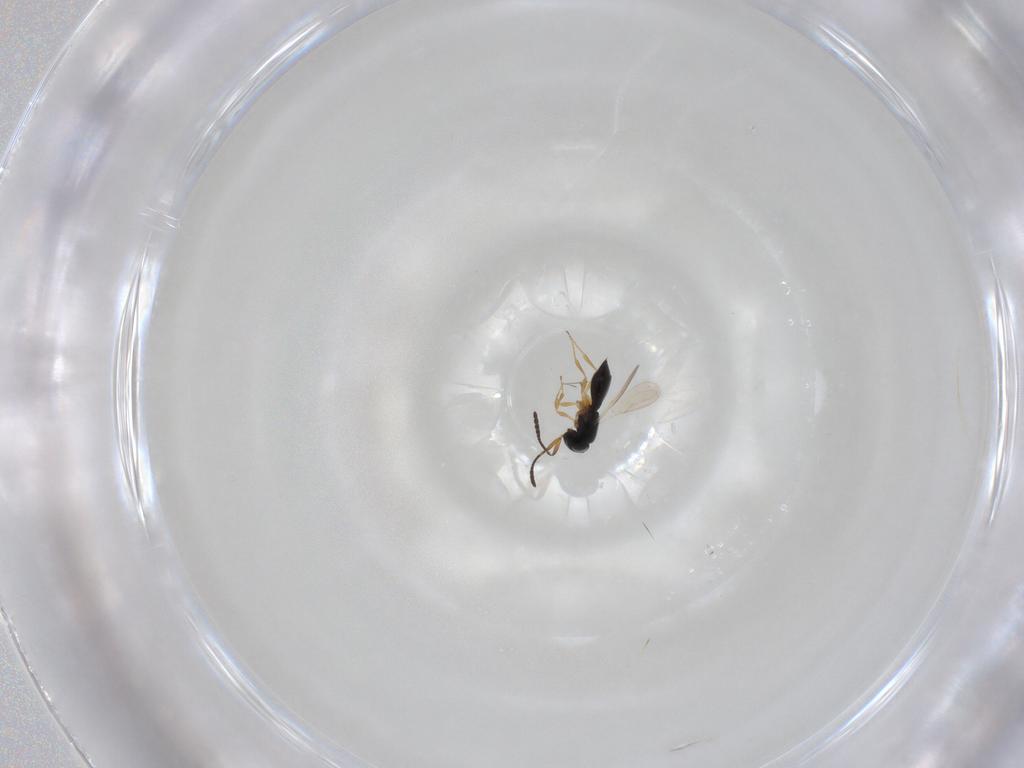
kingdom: Animalia
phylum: Arthropoda
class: Insecta
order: Hymenoptera
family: Scelionidae
